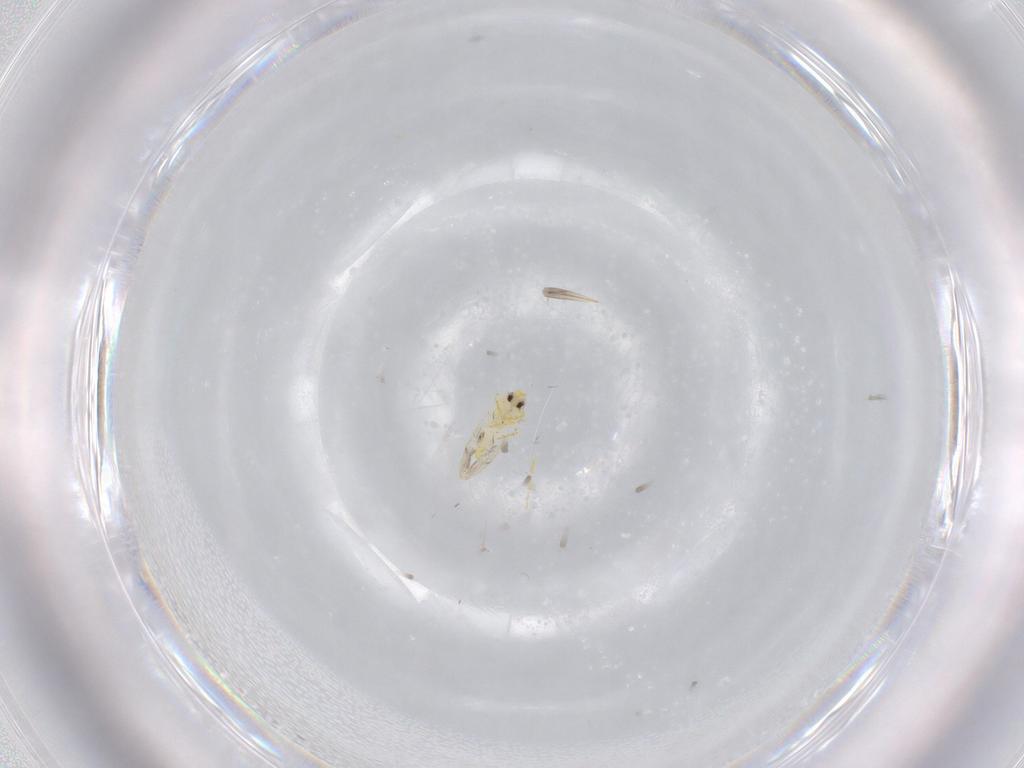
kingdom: Animalia
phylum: Arthropoda
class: Insecta
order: Hemiptera
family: Aleyrodidae
